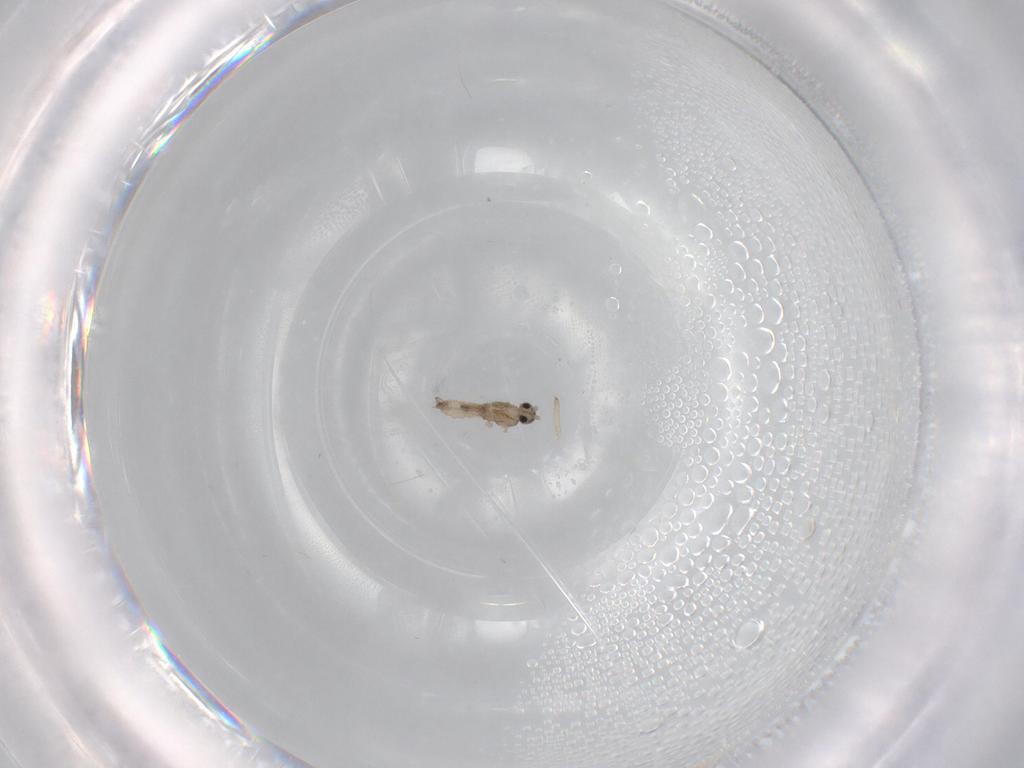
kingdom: Animalia
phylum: Arthropoda
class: Insecta
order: Diptera
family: Psychodidae
